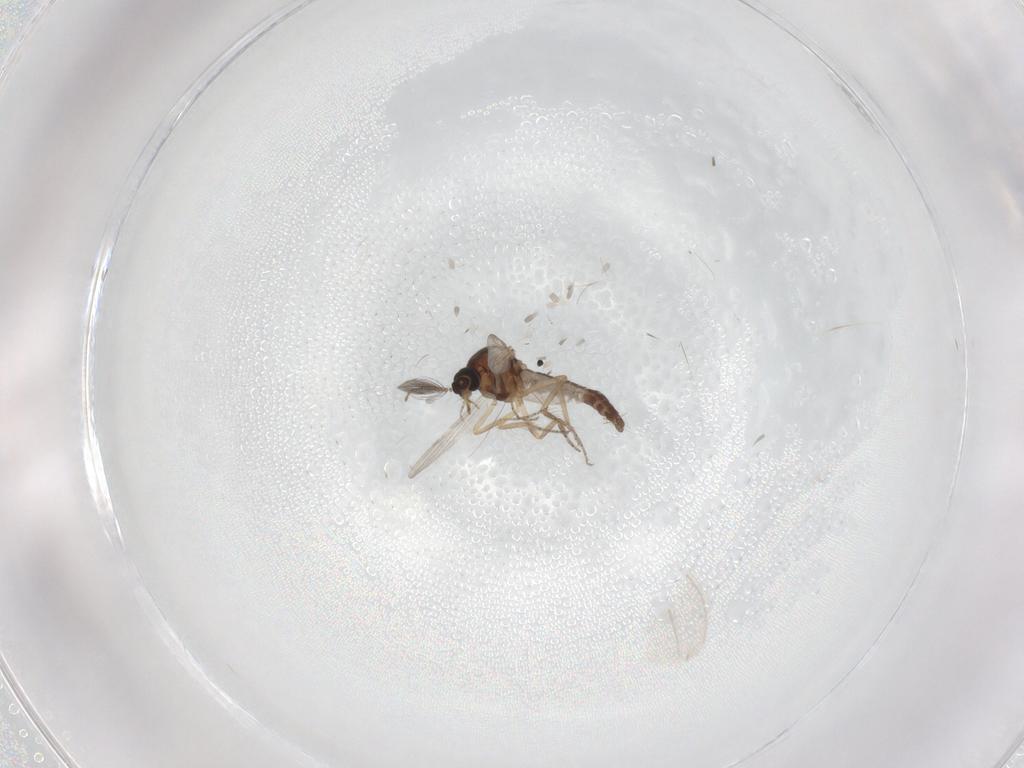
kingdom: Animalia
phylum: Arthropoda
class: Insecta
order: Diptera
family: Ceratopogonidae
